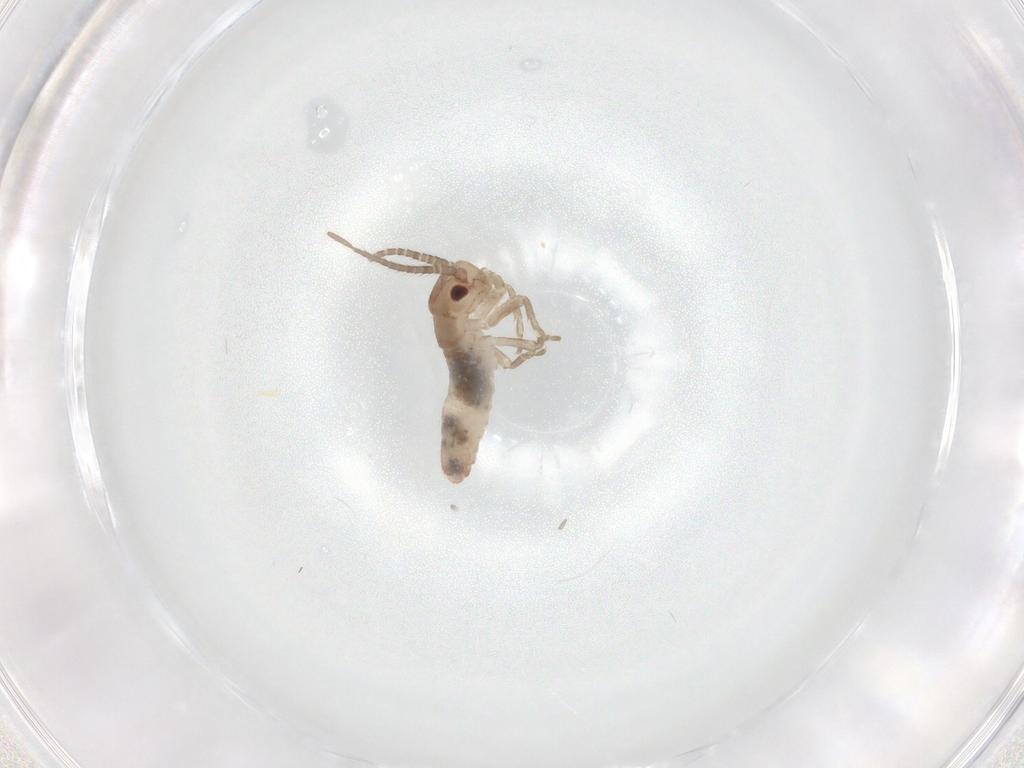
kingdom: Animalia
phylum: Arthropoda
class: Insecta
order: Orthoptera
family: Mogoplistidae
